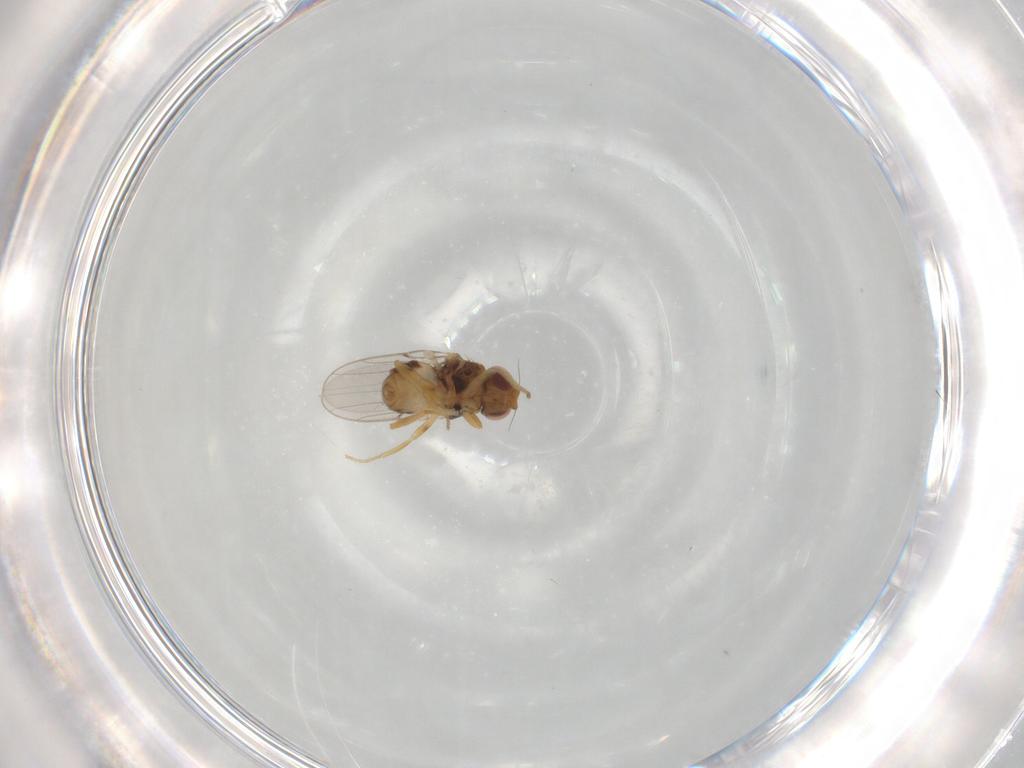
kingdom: Animalia
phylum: Arthropoda
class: Insecta
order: Diptera
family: Chloropidae
